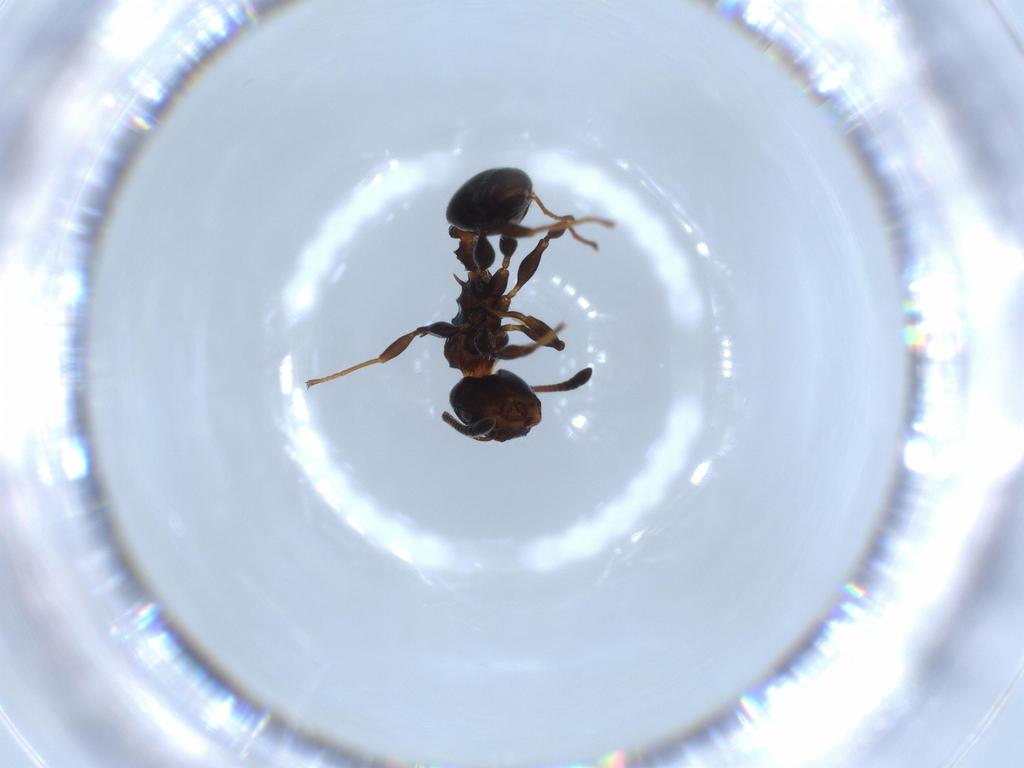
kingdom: Animalia
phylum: Arthropoda
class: Insecta
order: Hymenoptera
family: Formicidae
